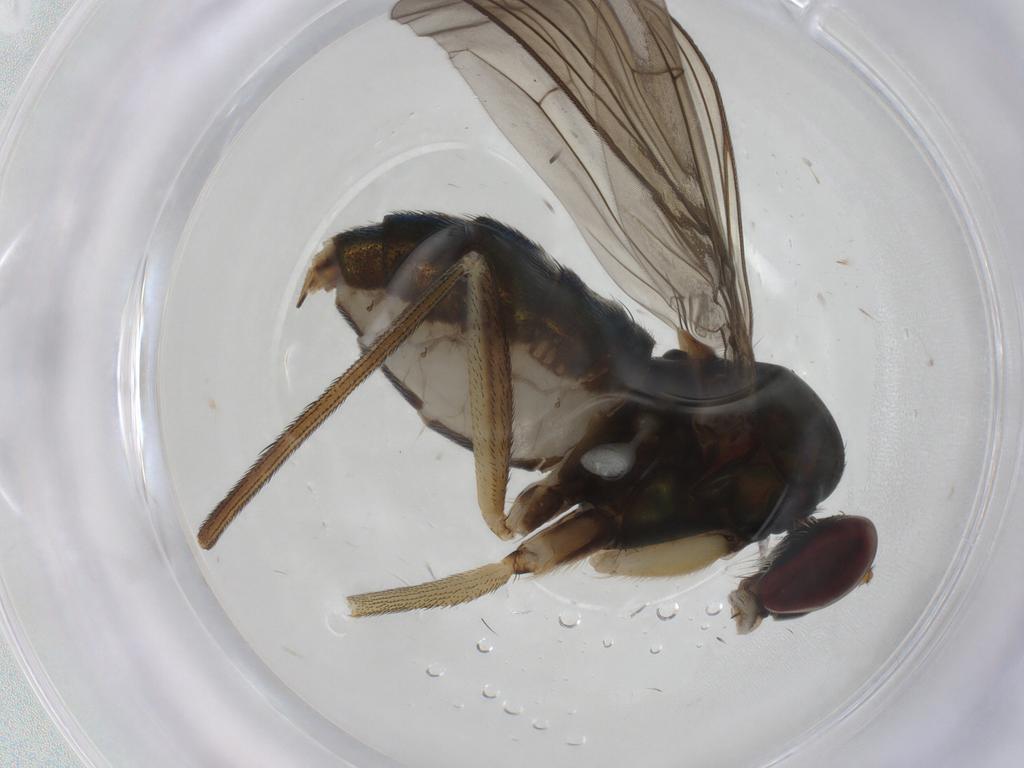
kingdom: Animalia
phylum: Arthropoda
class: Insecta
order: Diptera
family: Dolichopodidae
